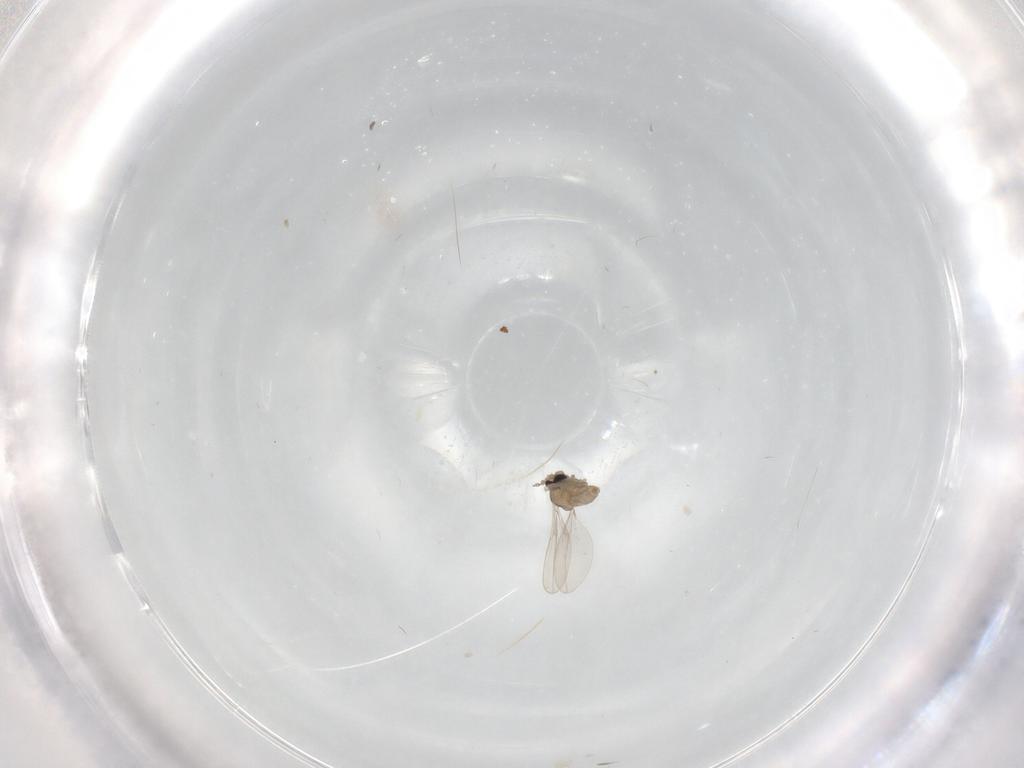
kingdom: Animalia
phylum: Arthropoda
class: Insecta
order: Diptera
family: Cecidomyiidae
